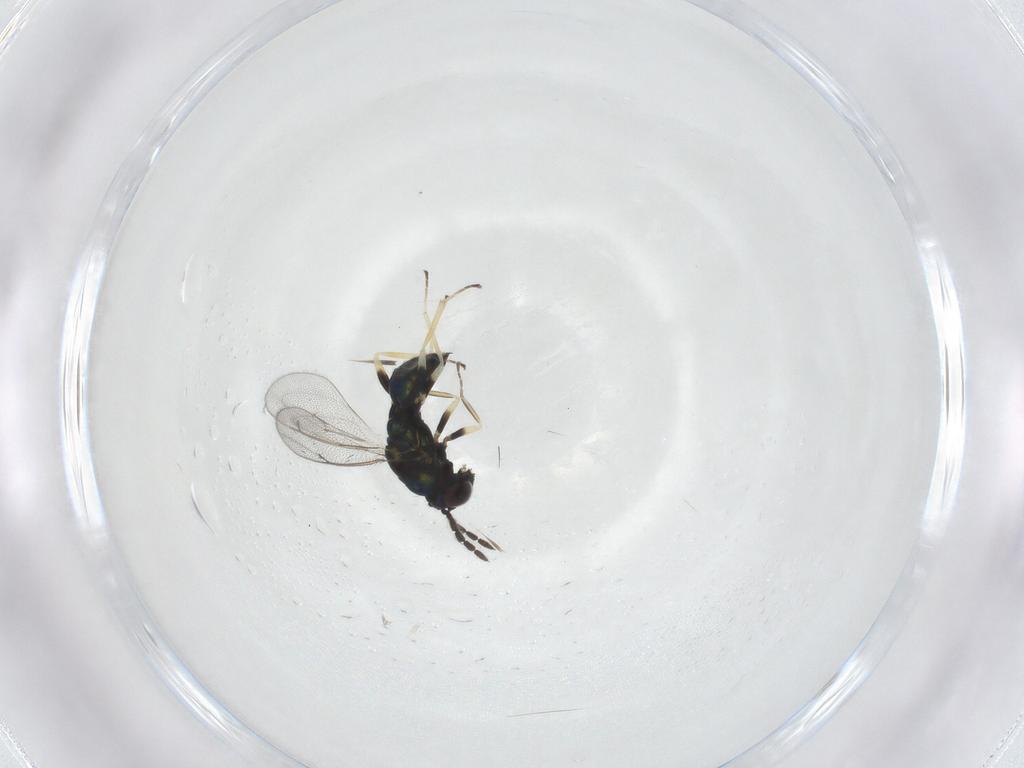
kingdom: Animalia
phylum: Arthropoda
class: Insecta
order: Hymenoptera
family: Eulophidae
